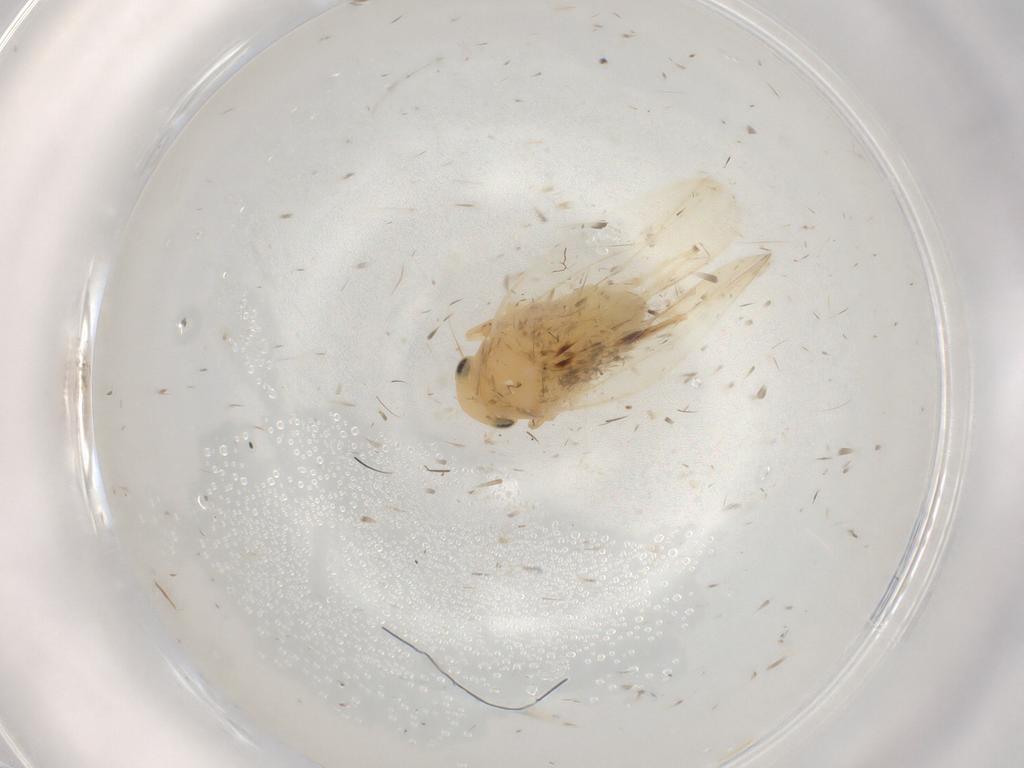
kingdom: Animalia
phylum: Arthropoda
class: Insecta
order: Hemiptera
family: Cicadellidae
